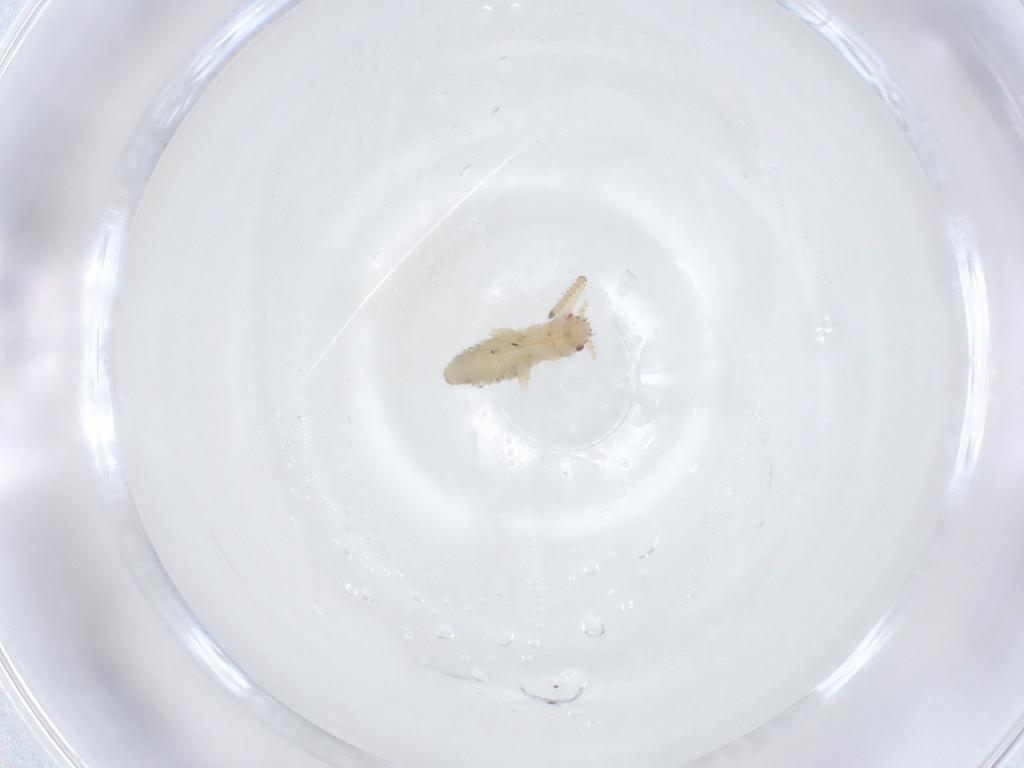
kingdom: Animalia
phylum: Arthropoda
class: Insecta
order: Hemiptera
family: Aphididae
